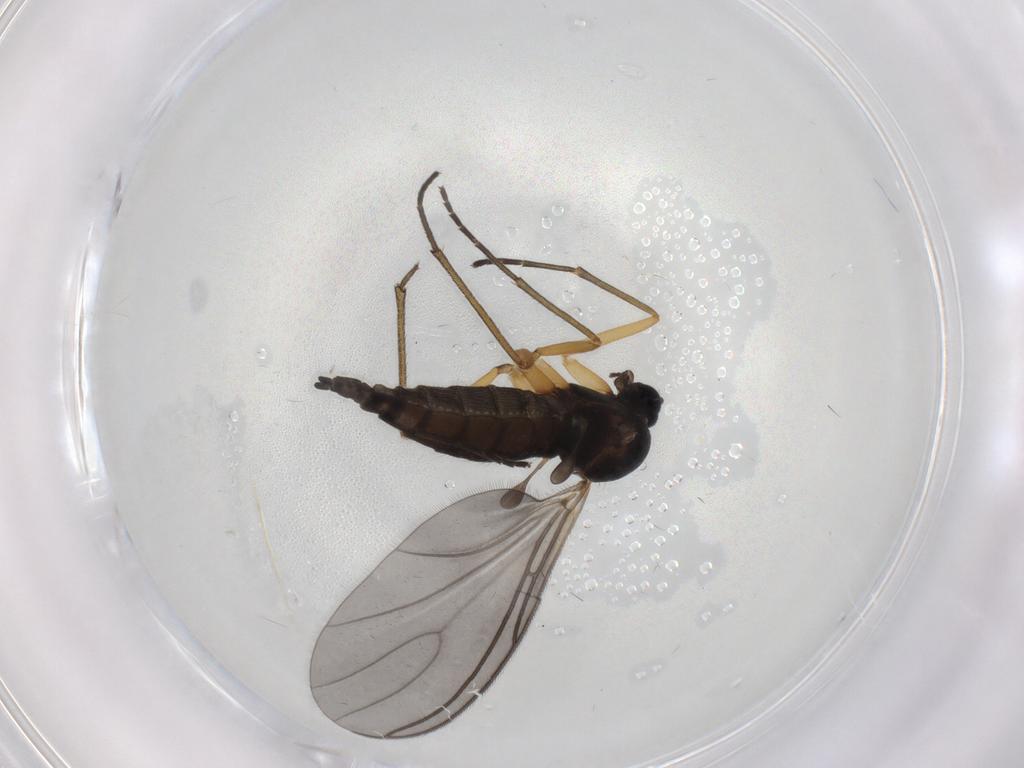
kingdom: Animalia
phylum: Arthropoda
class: Insecta
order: Diptera
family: Sciaridae
